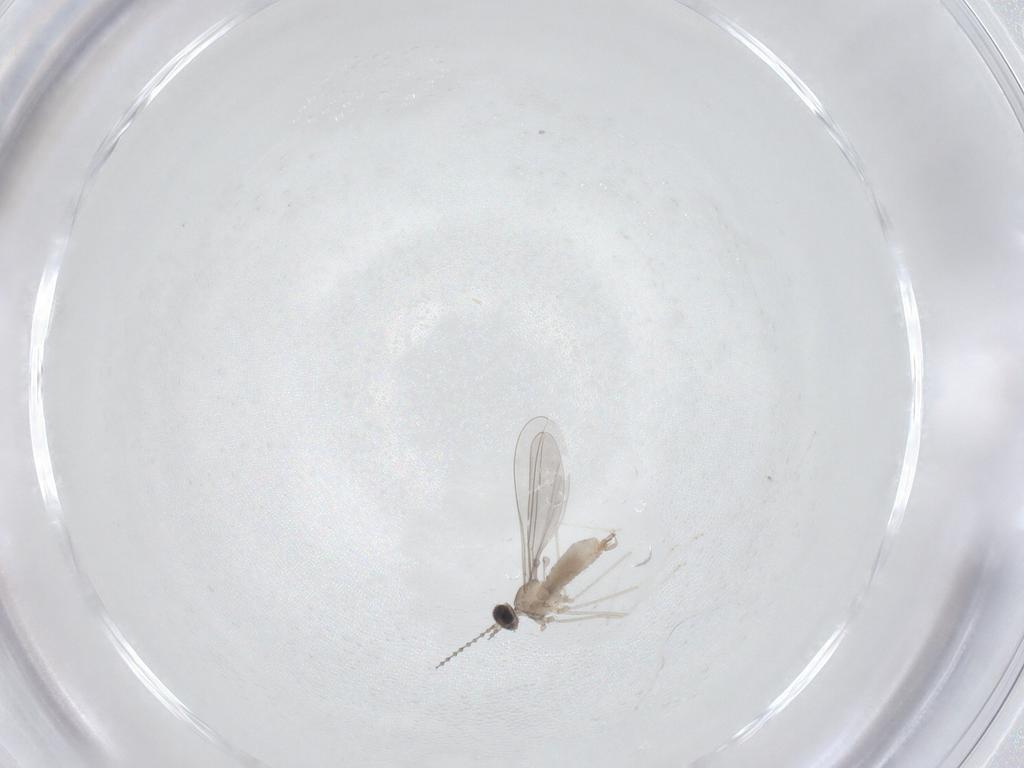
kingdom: Animalia
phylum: Arthropoda
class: Insecta
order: Diptera
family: Cecidomyiidae
